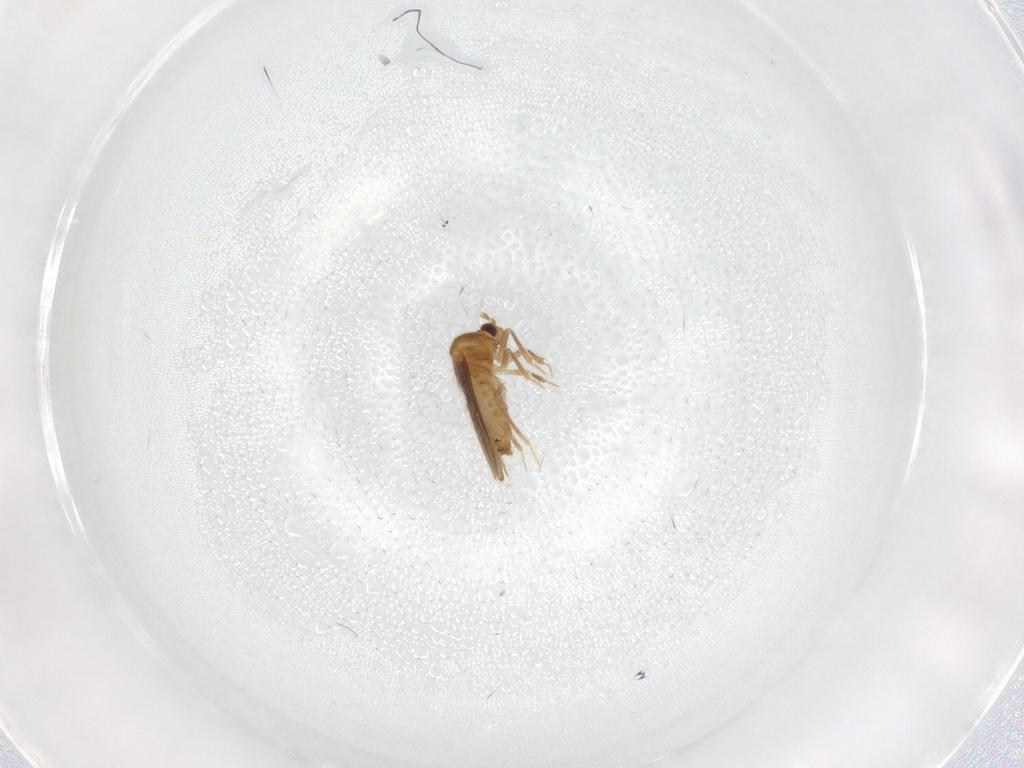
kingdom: Animalia
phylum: Arthropoda
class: Insecta
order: Hemiptera
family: Schizopteridae
